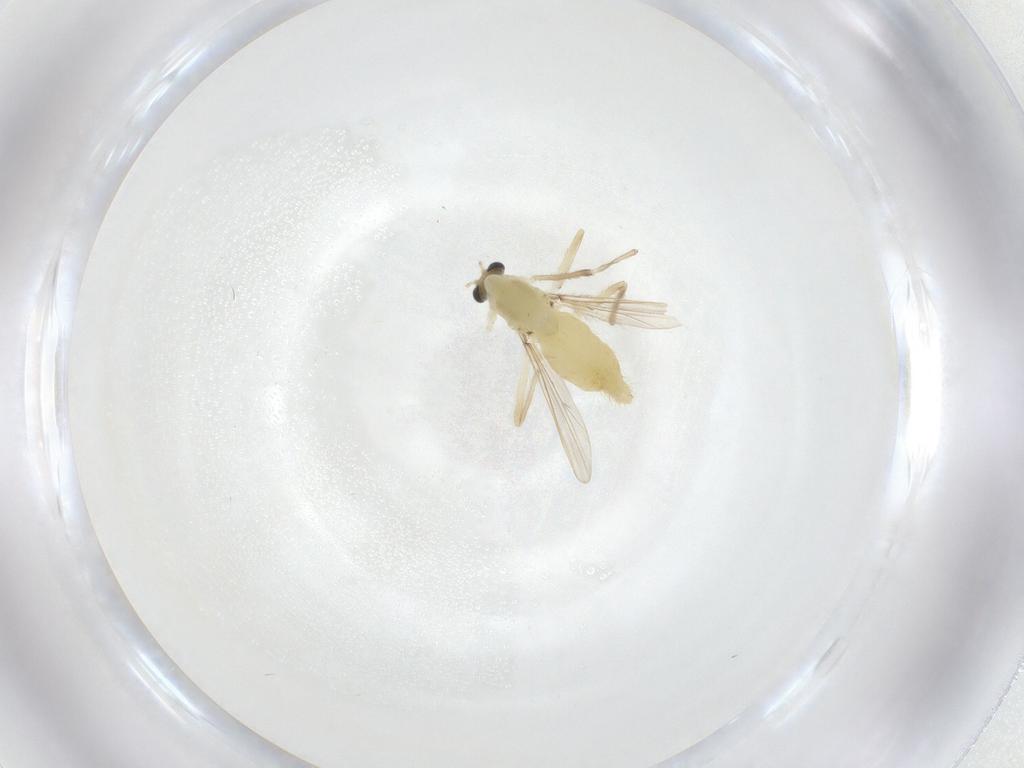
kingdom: Animalia
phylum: Arthropoda
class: Insecta
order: Diptera
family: Chironomidae
